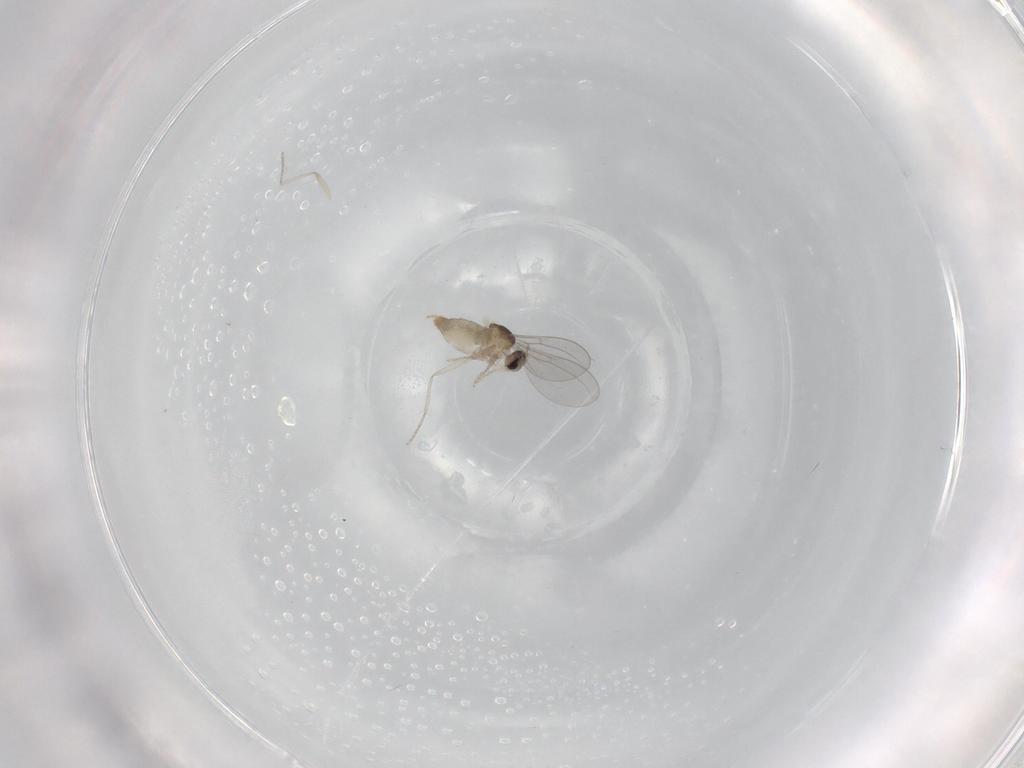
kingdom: Animalia
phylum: Arthropoda
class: Insecta
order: Diptera
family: Cecidomyiidae
